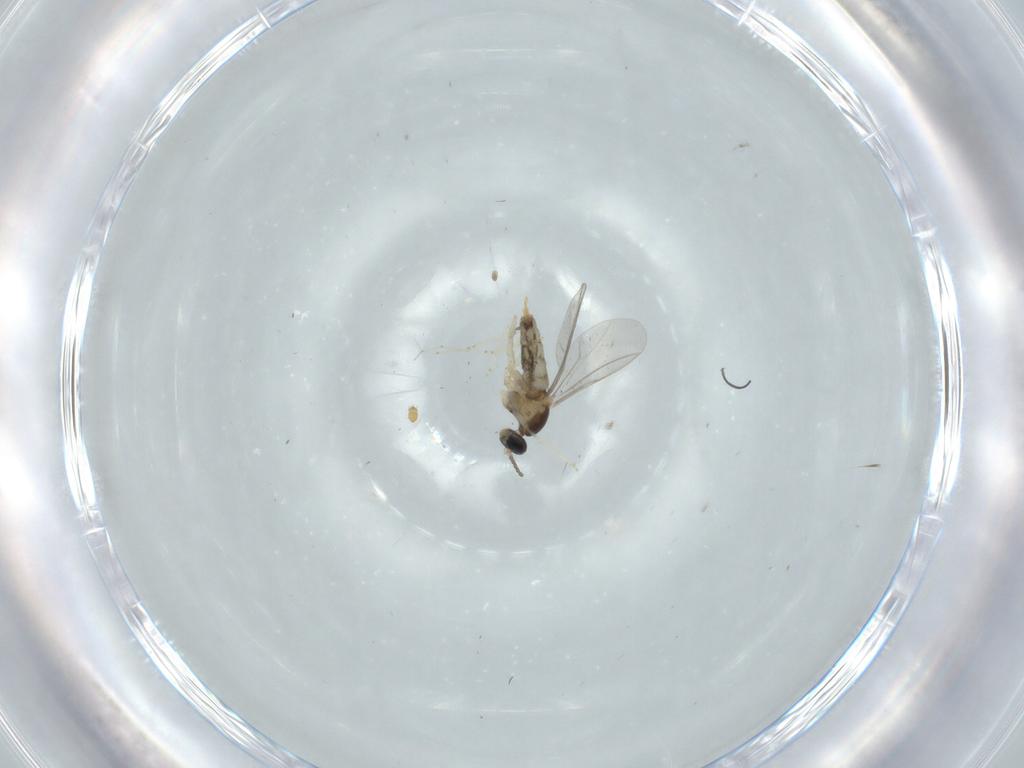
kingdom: Animalia
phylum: Arthropoda
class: Insecta
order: Diptera
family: Cecidomyiidae
